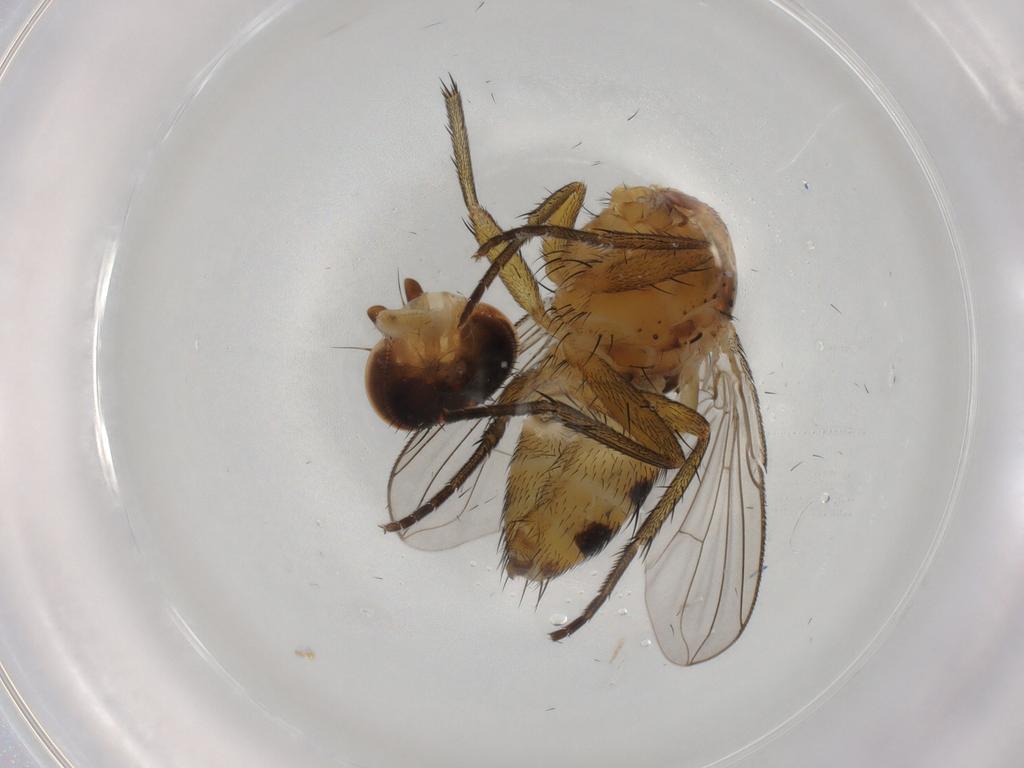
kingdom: Animalia
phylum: Arthropoda
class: Insecta
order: Diptera
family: Tachinidae
